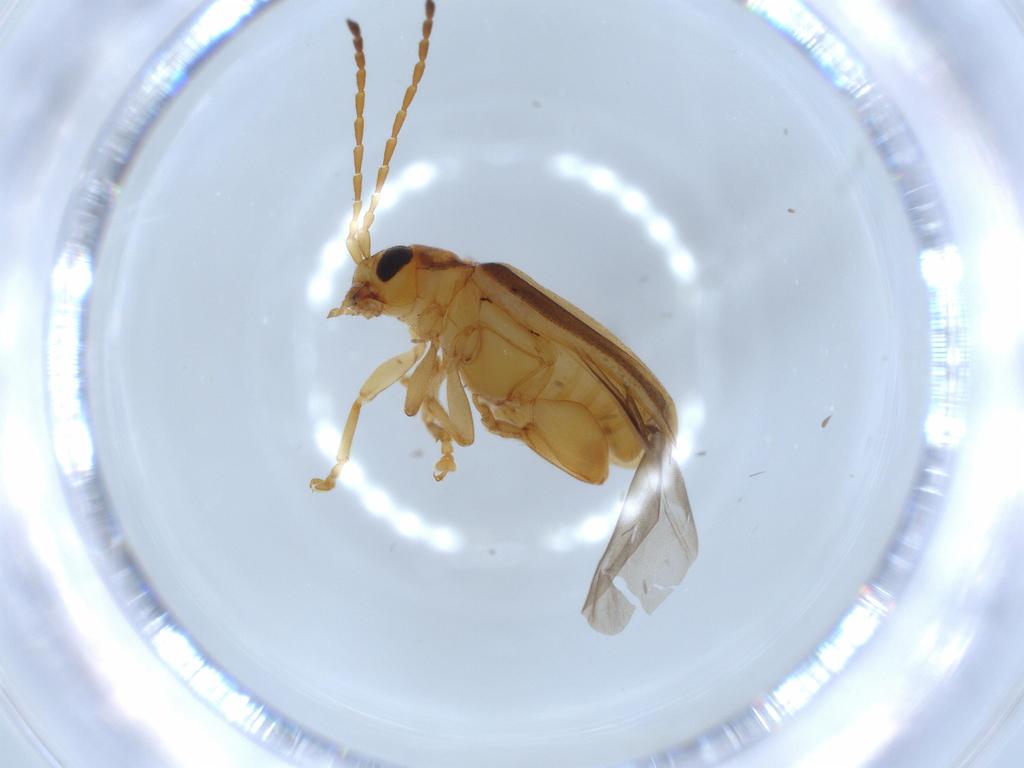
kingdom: Animalia
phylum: Arthropoda
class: Insecta
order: Coleoptera
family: Chrysomelidae
